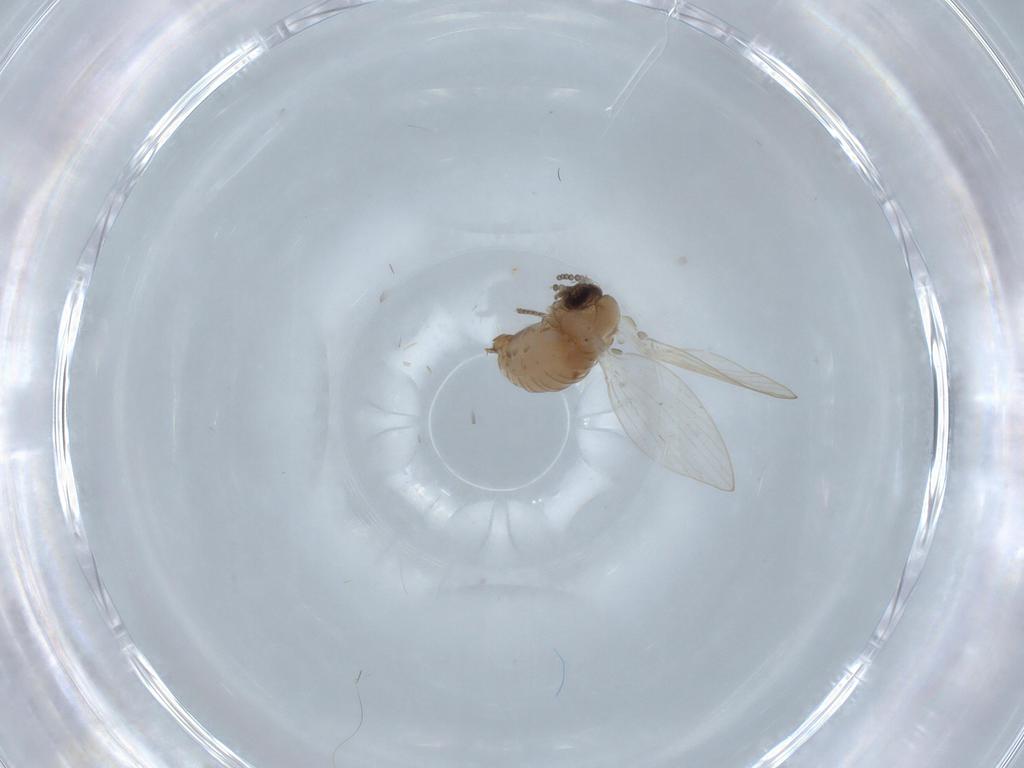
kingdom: Animalia
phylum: Arthropoda
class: Insecta
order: Diptera
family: Psychodidae
